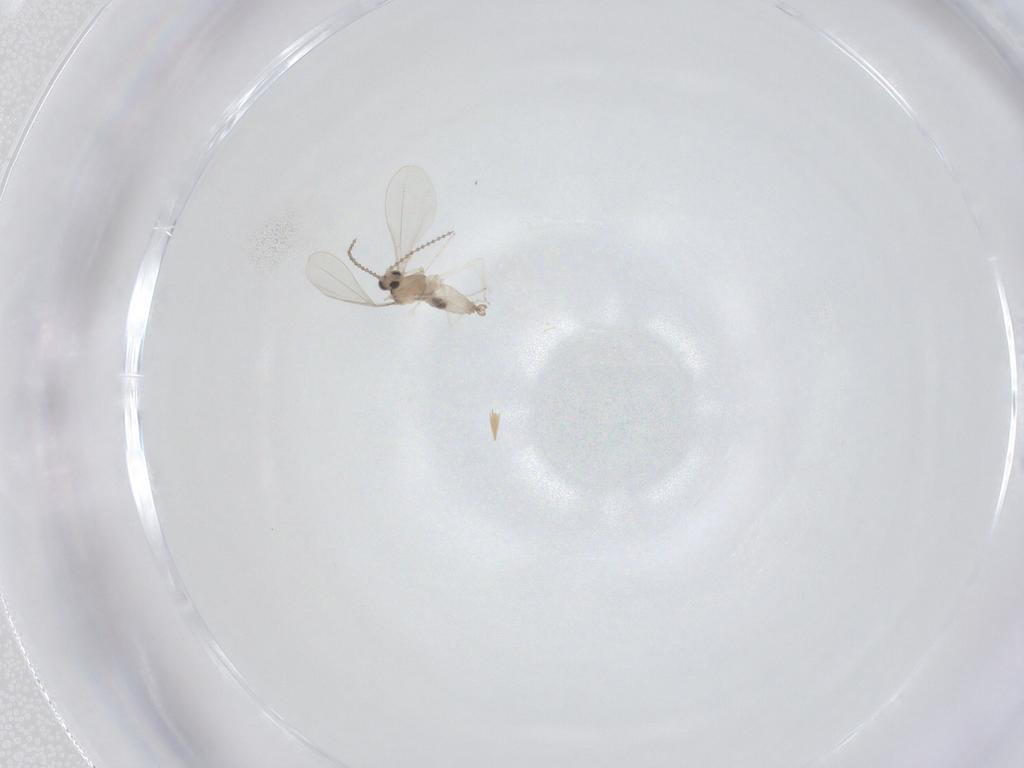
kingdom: Animalia
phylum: Arthropoda
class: Insecta
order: Diptera
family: Cecidomyiidae
